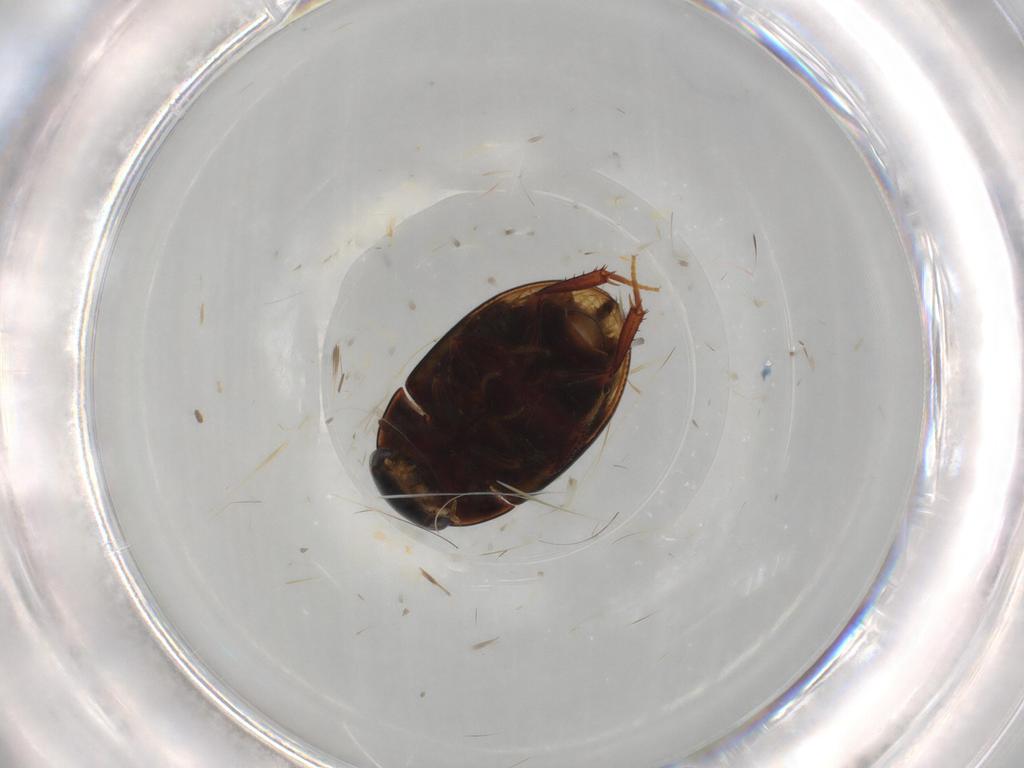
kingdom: Animalia
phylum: Arthropoda
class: Insecta
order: Coleoptera
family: Hydrophilidae
